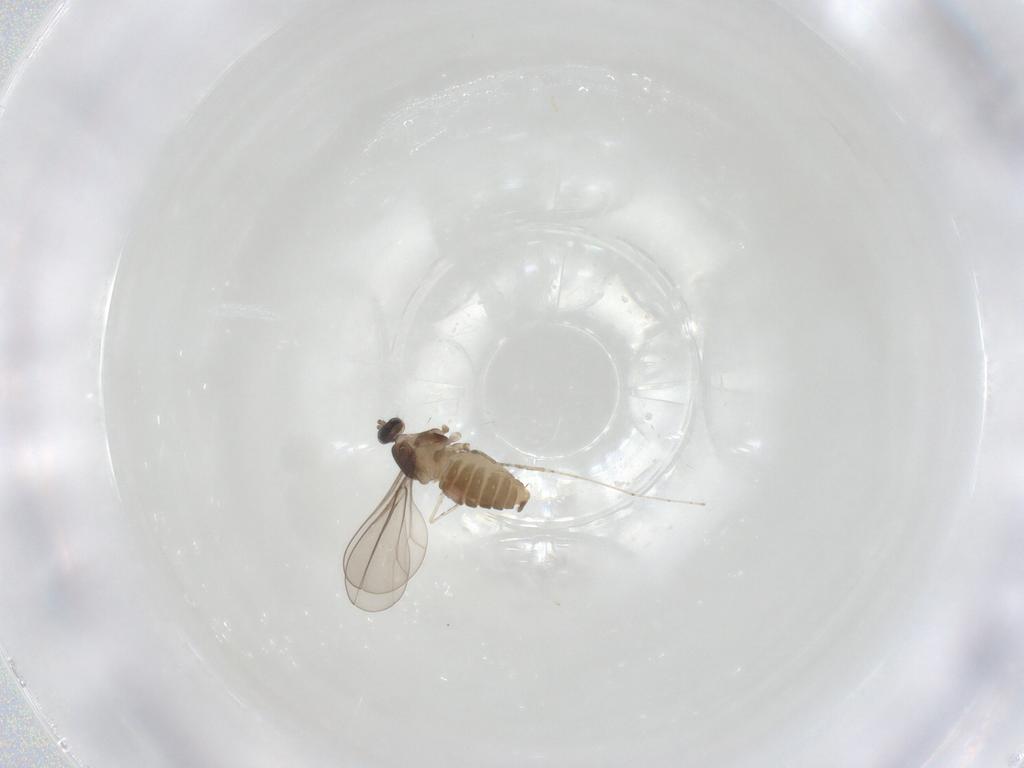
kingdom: Animalia
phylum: Arthropoda
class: Insecta
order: Diptera
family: Cecidomyiidae
